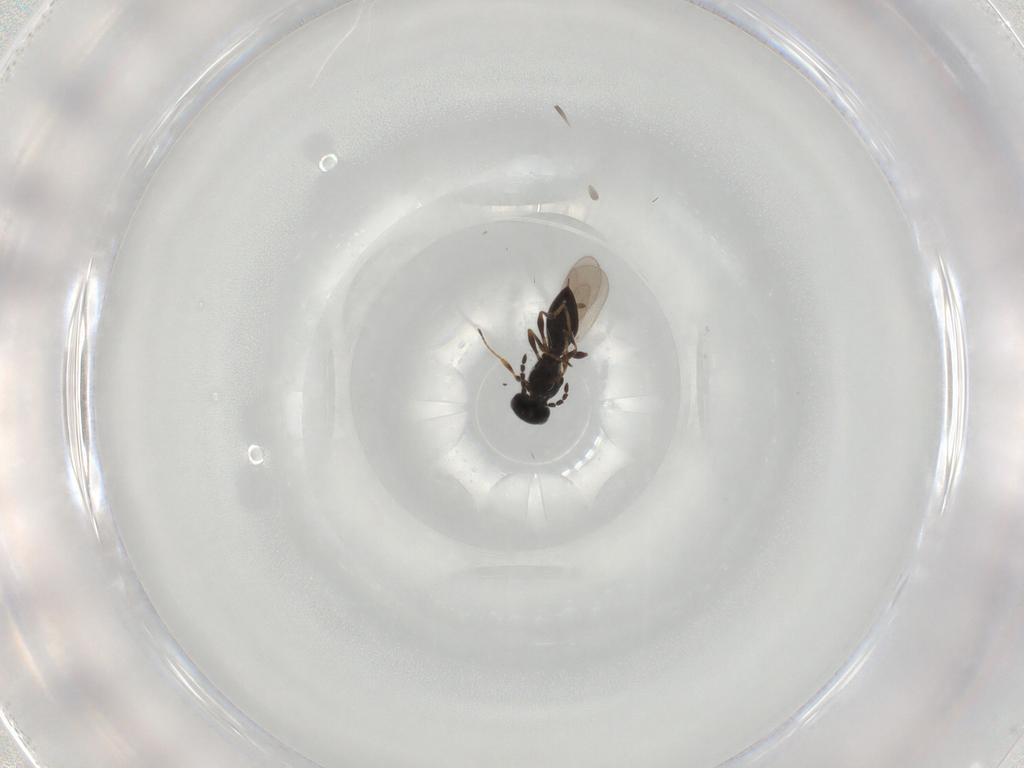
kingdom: Animalia
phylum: Arthropoda
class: Insecta
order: Hymenoptera
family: Platygastridae
